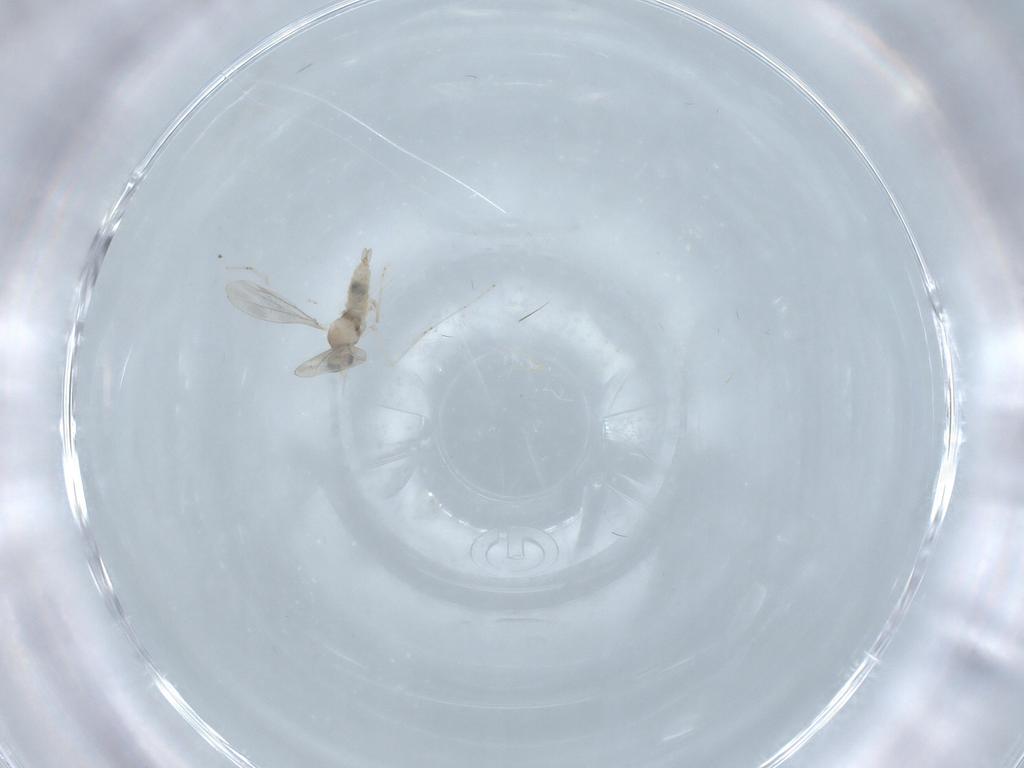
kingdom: Animalia
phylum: Arthropoda
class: Insecta
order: Diptera
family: Cecidomyiidae
